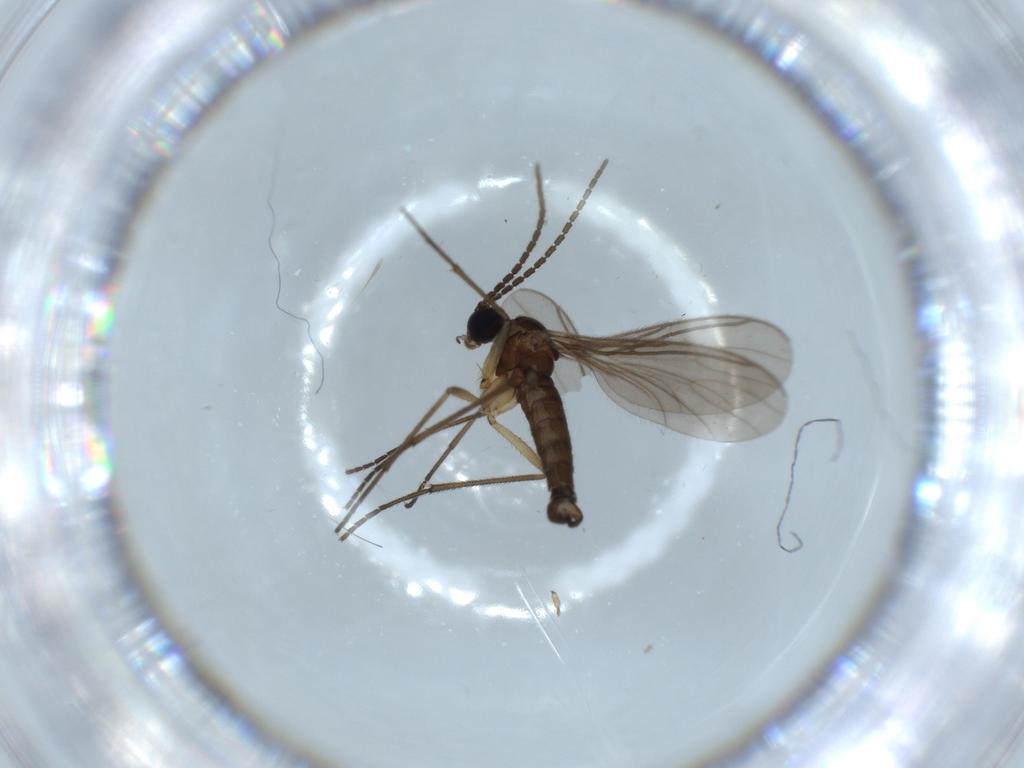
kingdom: Animalia
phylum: Arthropoda
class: Insecta
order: Diptera
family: Sciaridae
